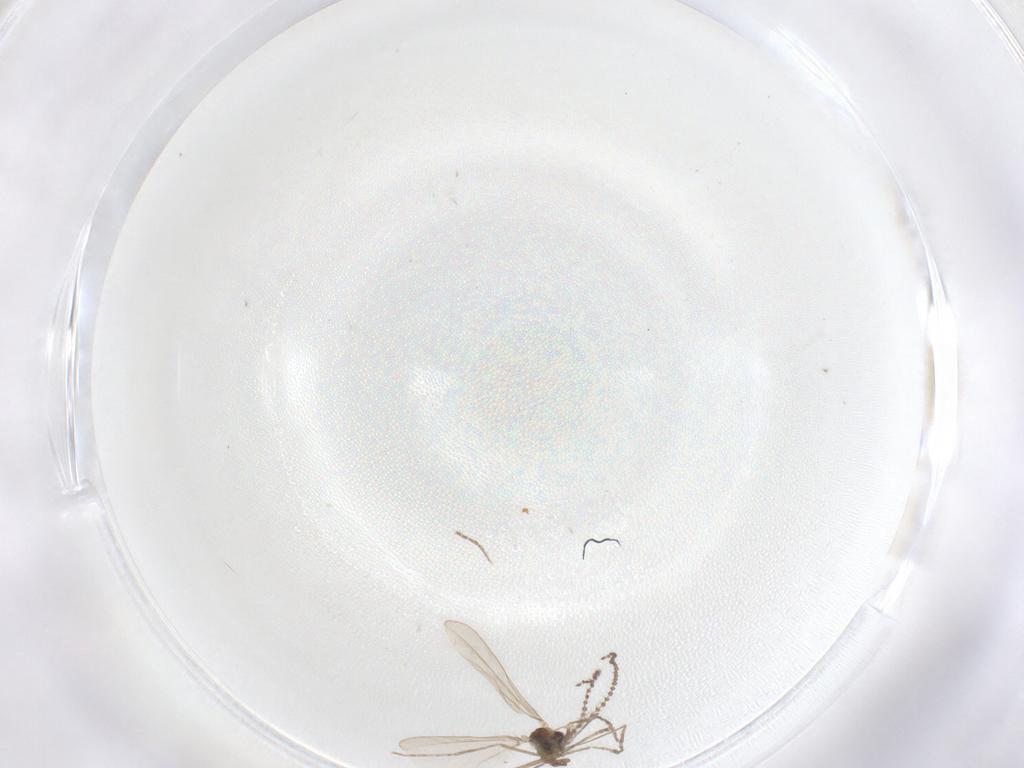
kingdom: Animalia
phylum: Arthropoda
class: Insecta
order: Diptera
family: Cecidomyiidae
